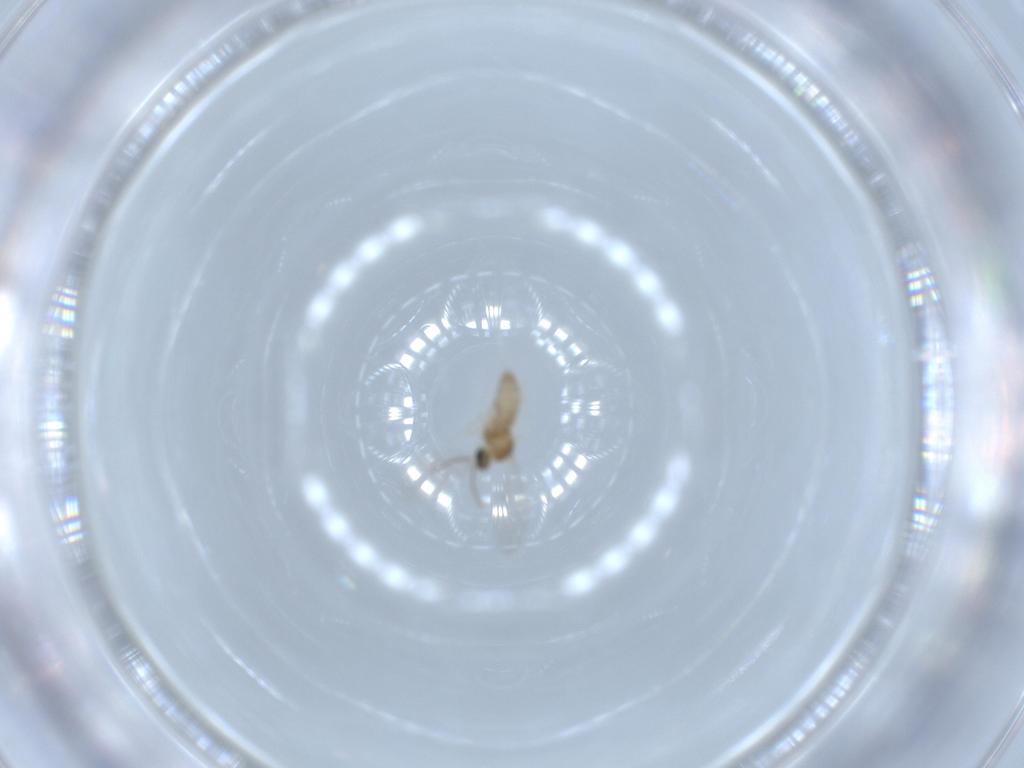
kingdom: Animalia
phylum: Arthropoda
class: Insecta
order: Diptera
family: Cecidomyiidae
